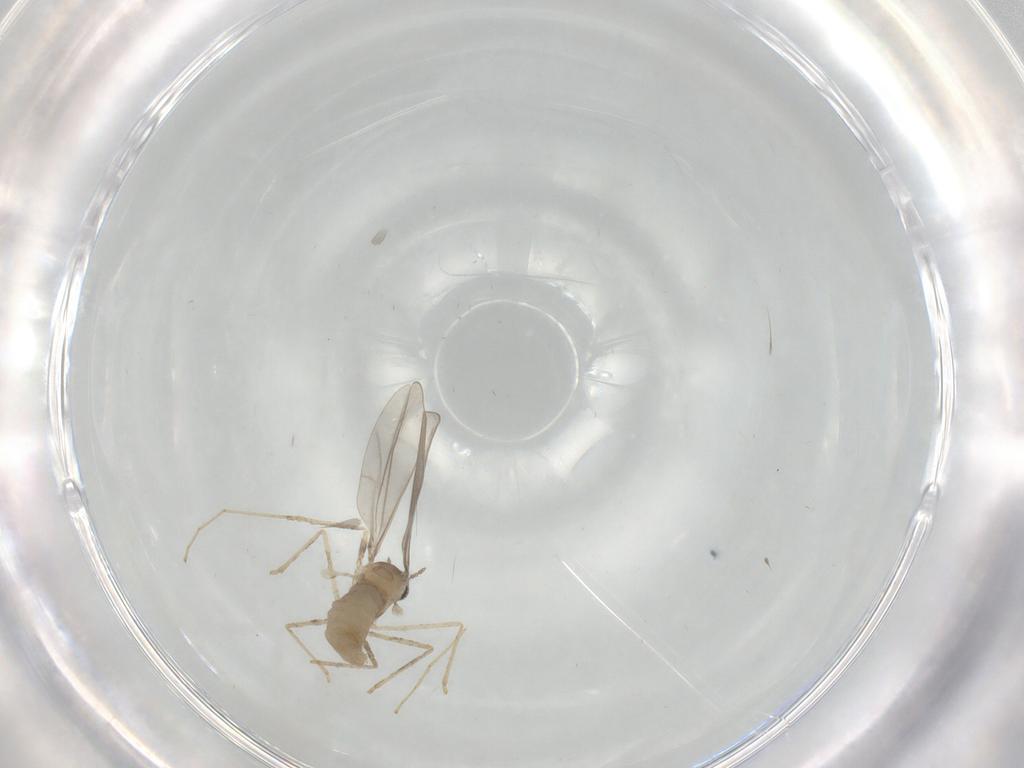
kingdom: Animalia
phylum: Arthropoda
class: Insecta
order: Diptera
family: Cecidomyiidae
